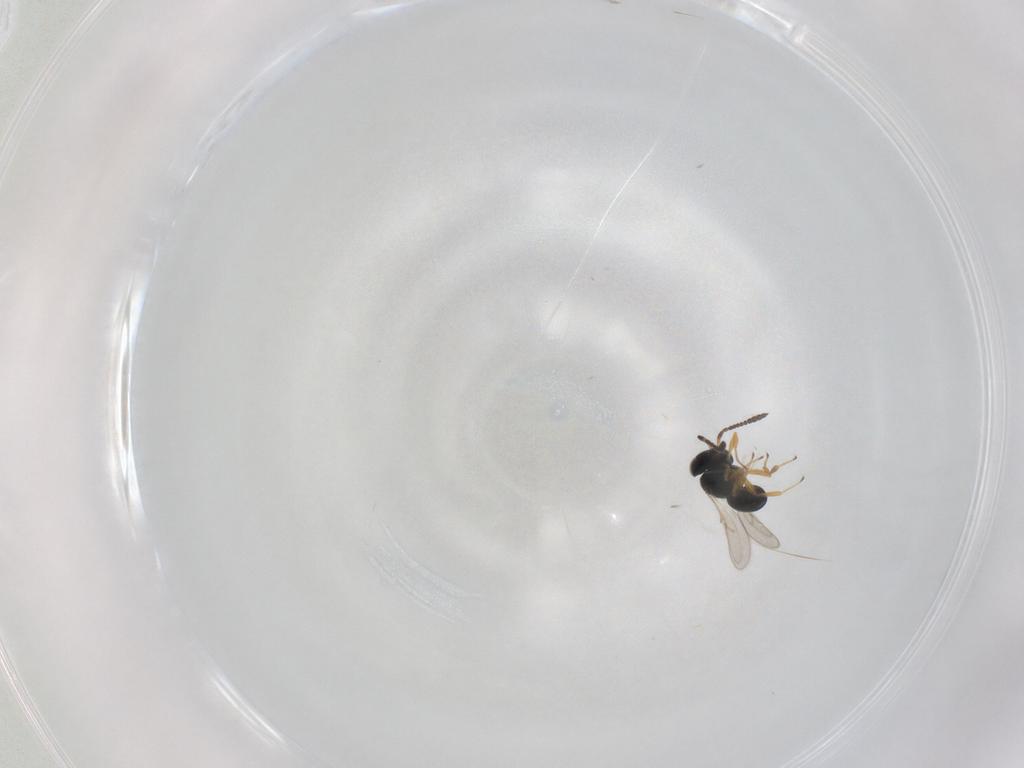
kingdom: Animalia
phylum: Arthropoda
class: Insecta
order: Hymenoptera
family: Scelionidae
